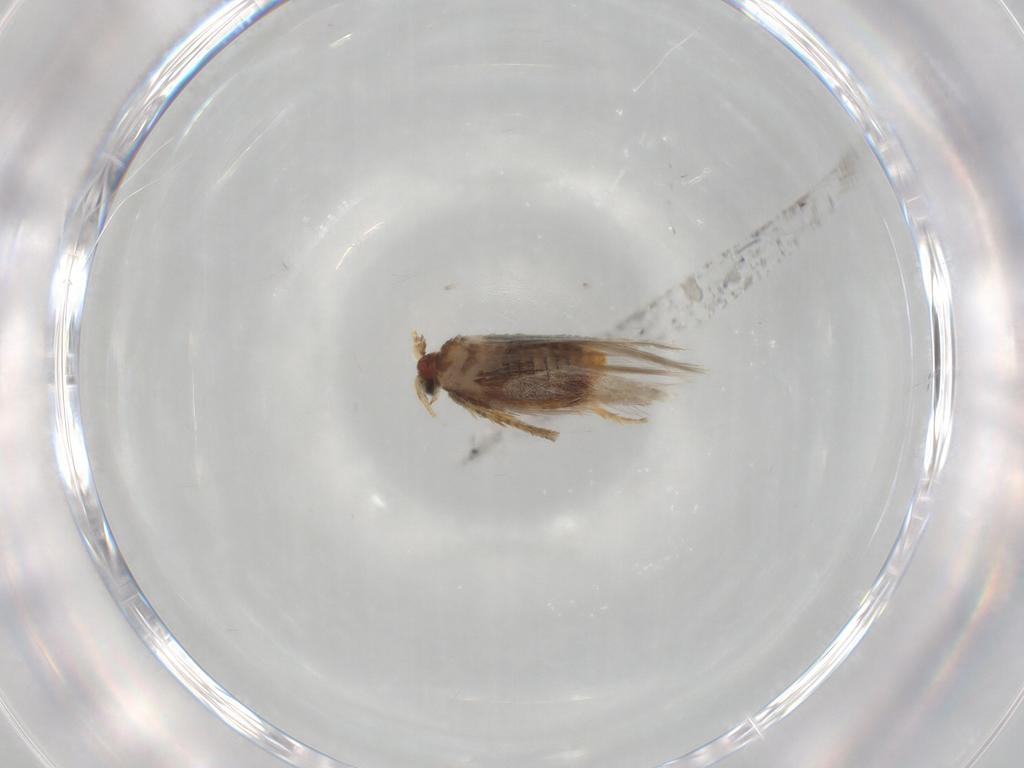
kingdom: Animalia
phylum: Arthropoda
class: Insecta
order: Lepidoptera
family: Nepticulidae
